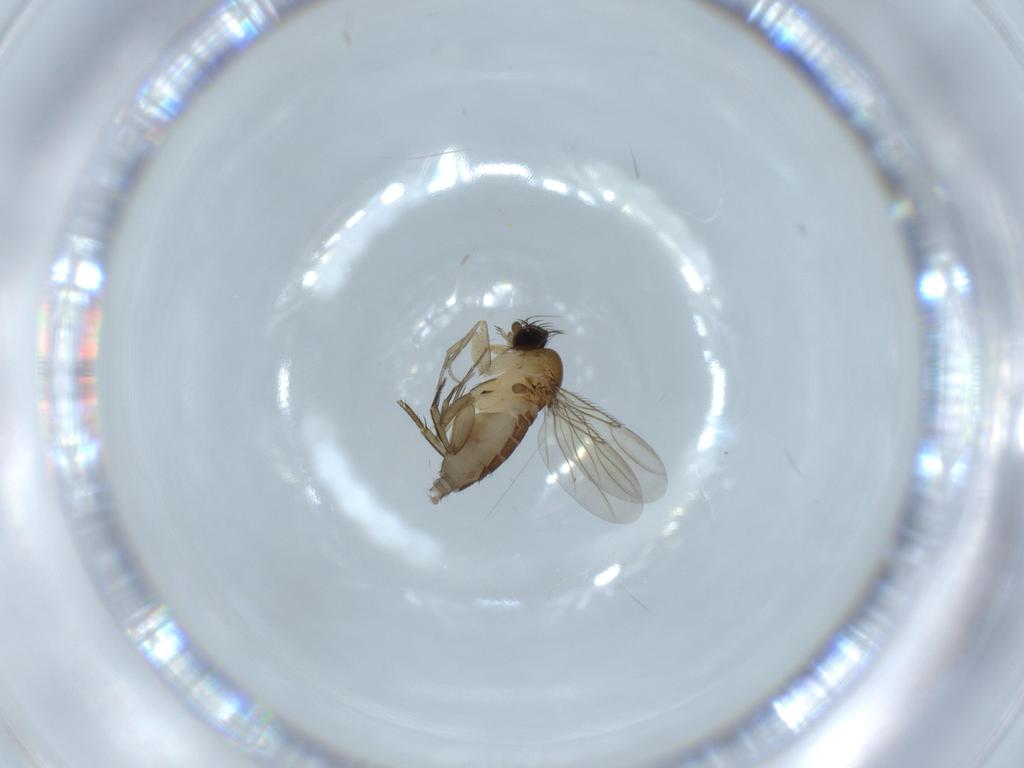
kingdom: Animalia
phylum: Arthropoda
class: Insecta
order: Diptera
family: Phoridae
